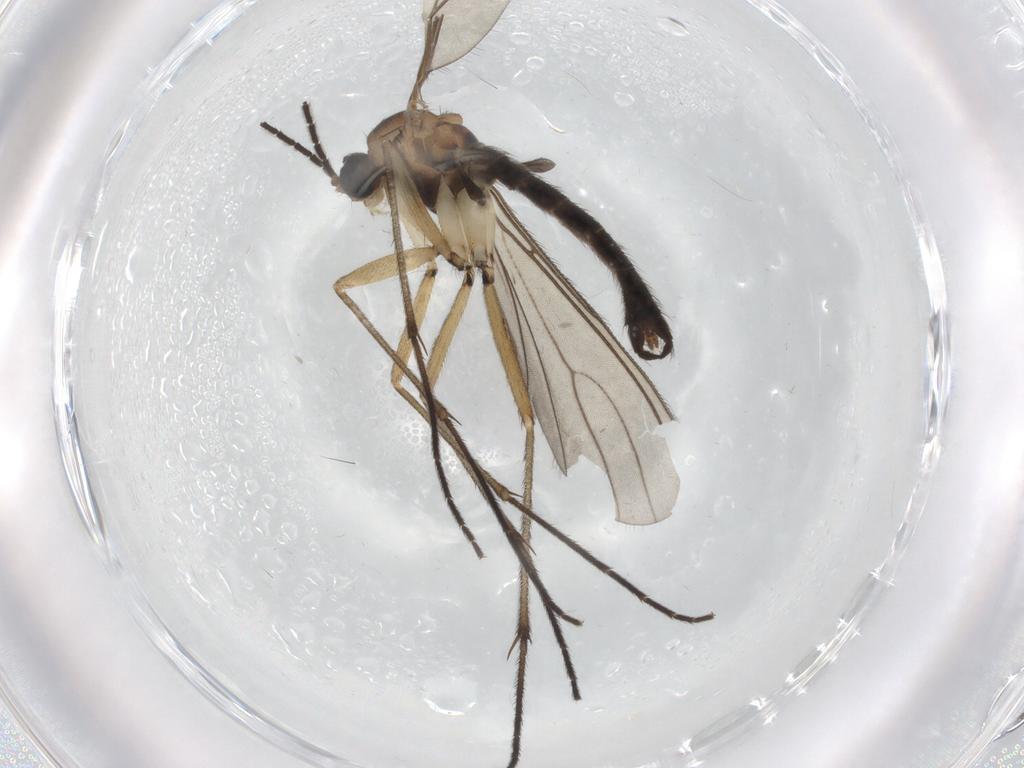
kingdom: Animalia
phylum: Arthropoda
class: Insecta
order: Diptera
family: Sciaridae
